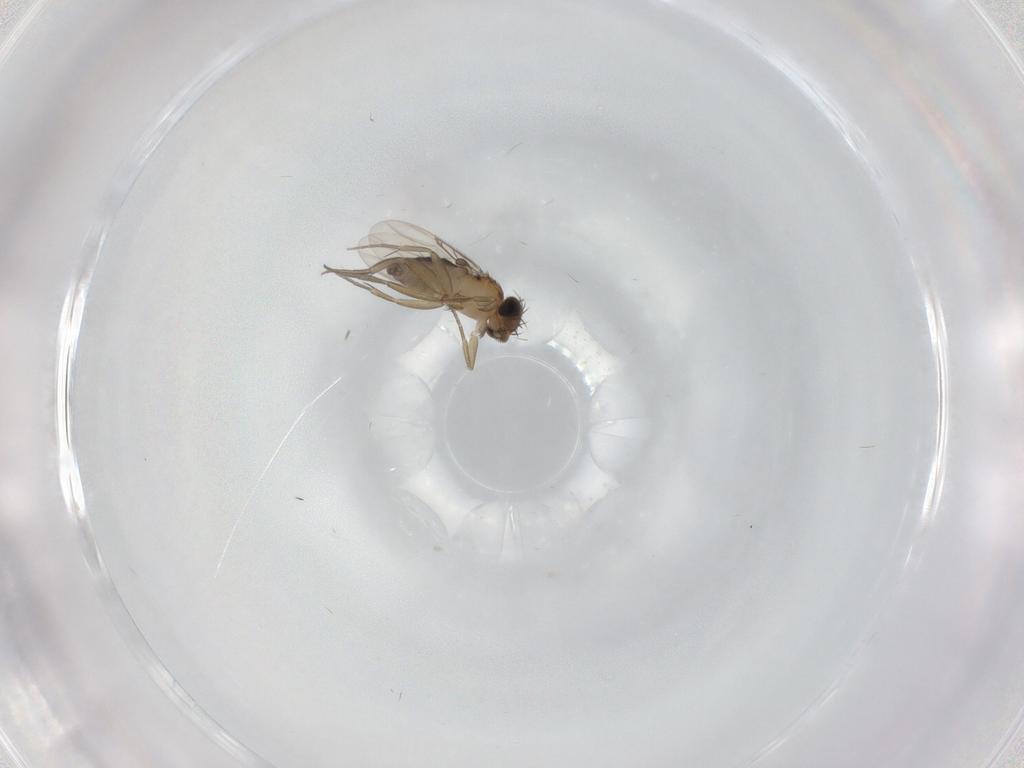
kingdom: Animalia
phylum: Arthropoda
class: Insecta
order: Diptera
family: Phoridae
